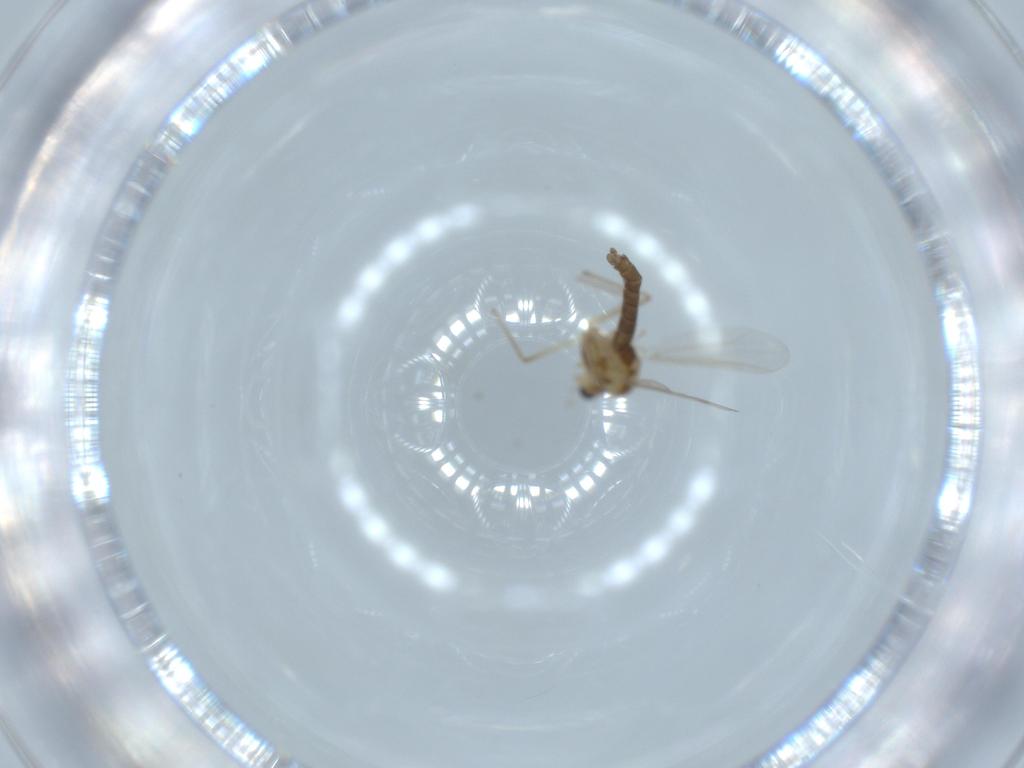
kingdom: Animalia
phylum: Arthropoda
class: Insecta
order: Diptera
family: Chironomidae
